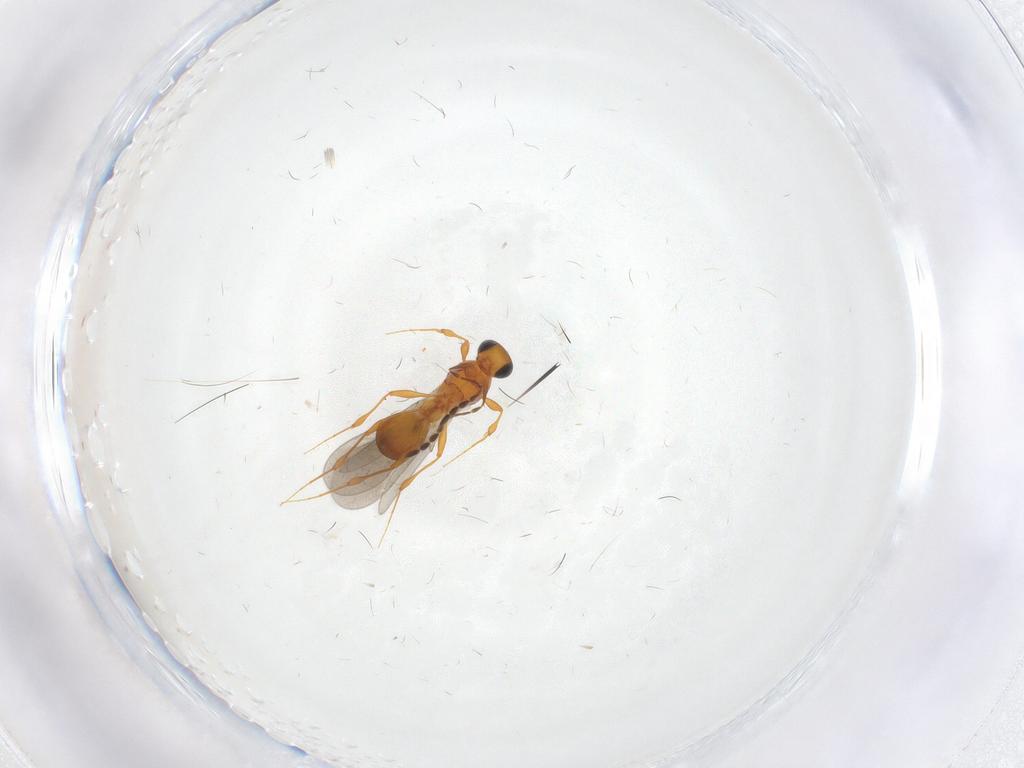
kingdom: Animalia
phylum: Arthropoda
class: Insecta
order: Hymenoptera
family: Platygastridae
